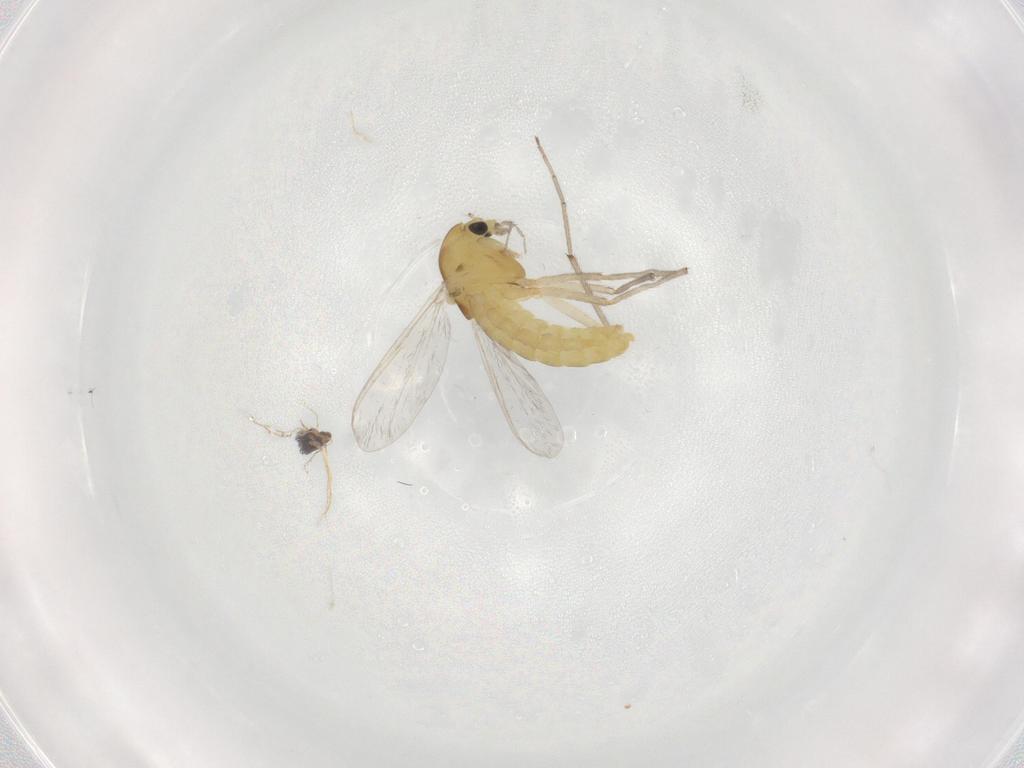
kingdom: Animalia
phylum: Arthropoda
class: Insecta
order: Diptera
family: Chironomidae
